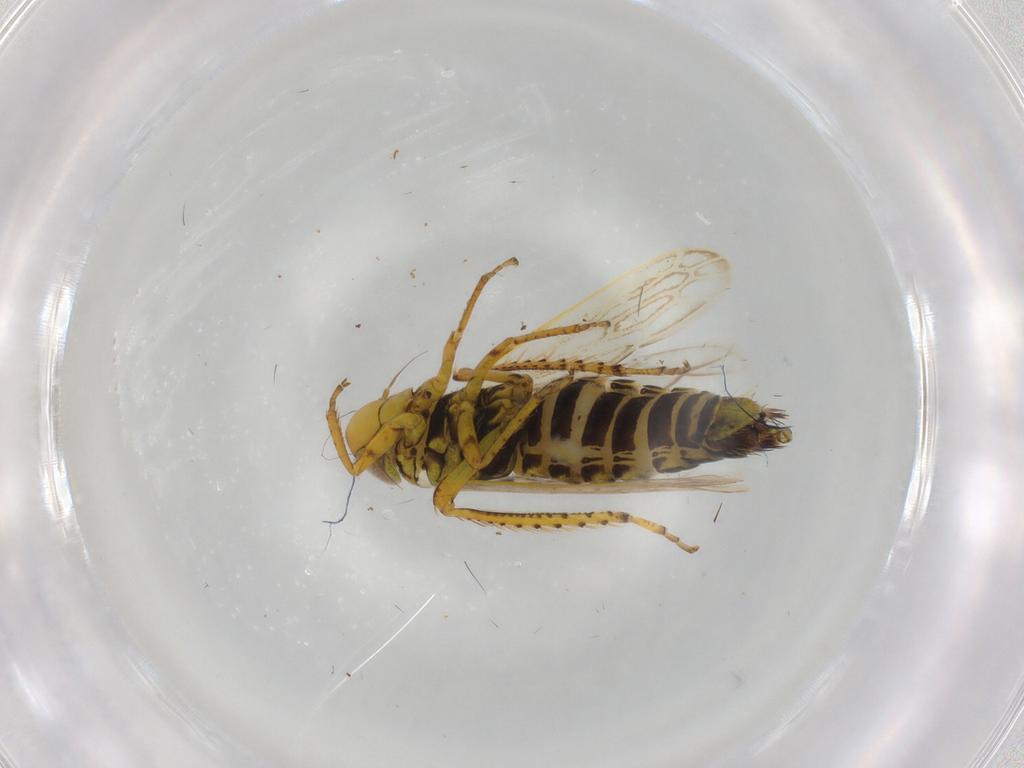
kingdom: Animalia
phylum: Arthropoda
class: Insecta
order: Hemiptera
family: Cicadellidae
